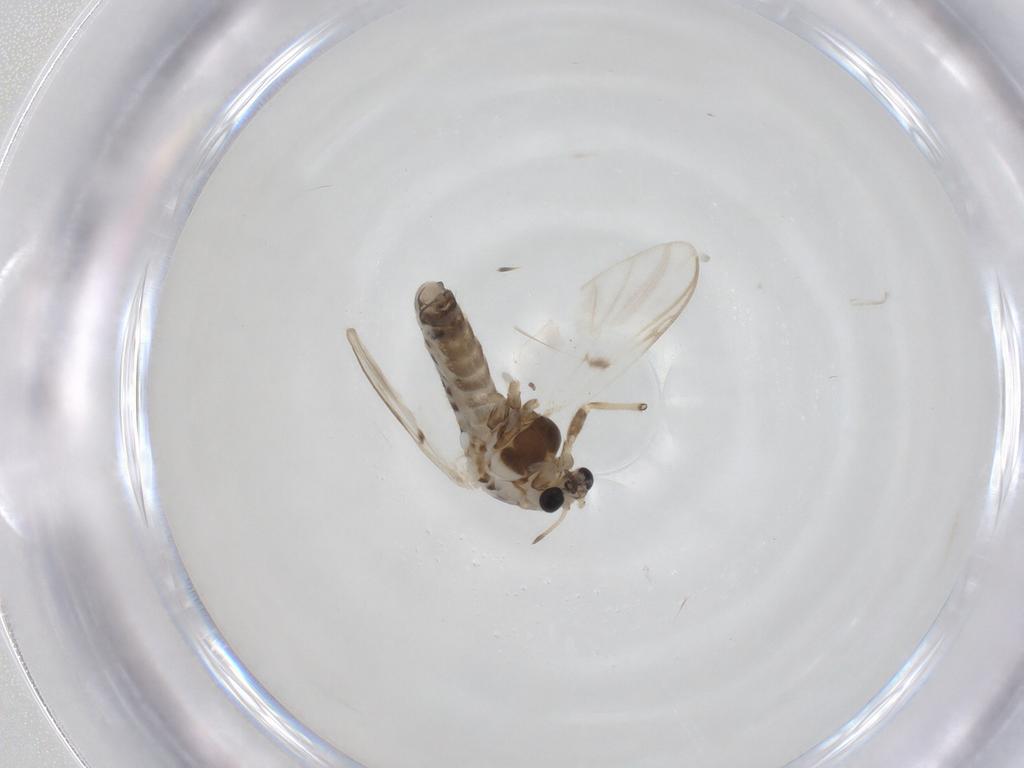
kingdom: Animalia
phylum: Arthropoda
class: Insecta
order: Diptera
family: Chironomidae
